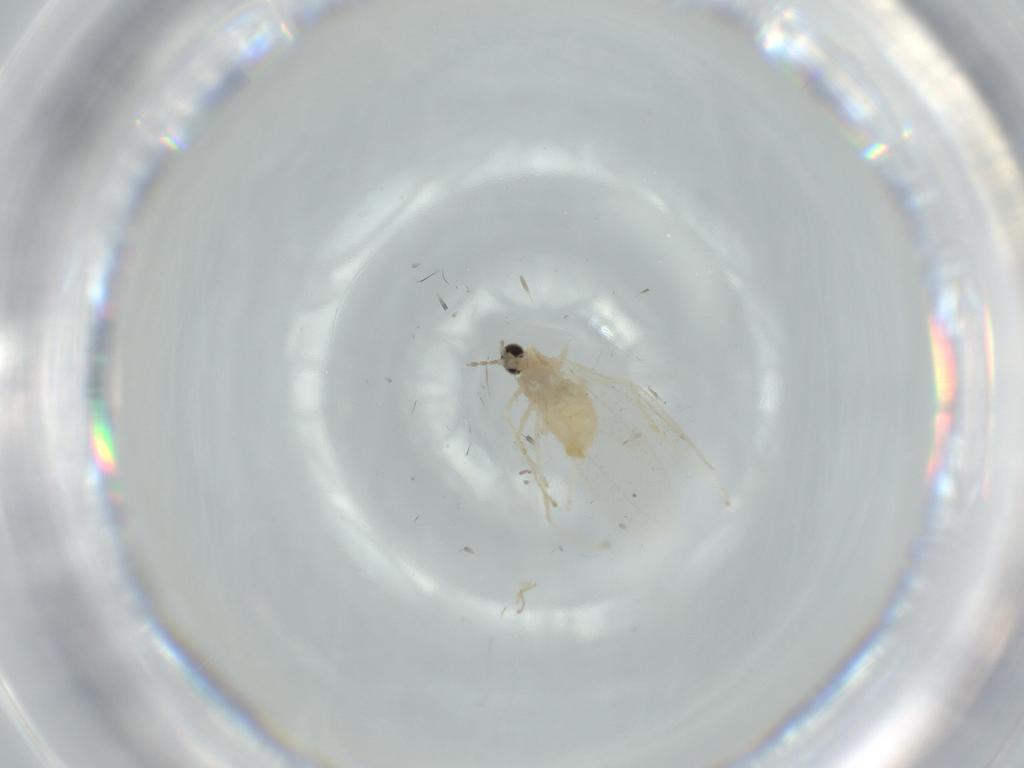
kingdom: Animalia
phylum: Arthropoda
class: Insecta
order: Diptera
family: Cecidomyiidae
